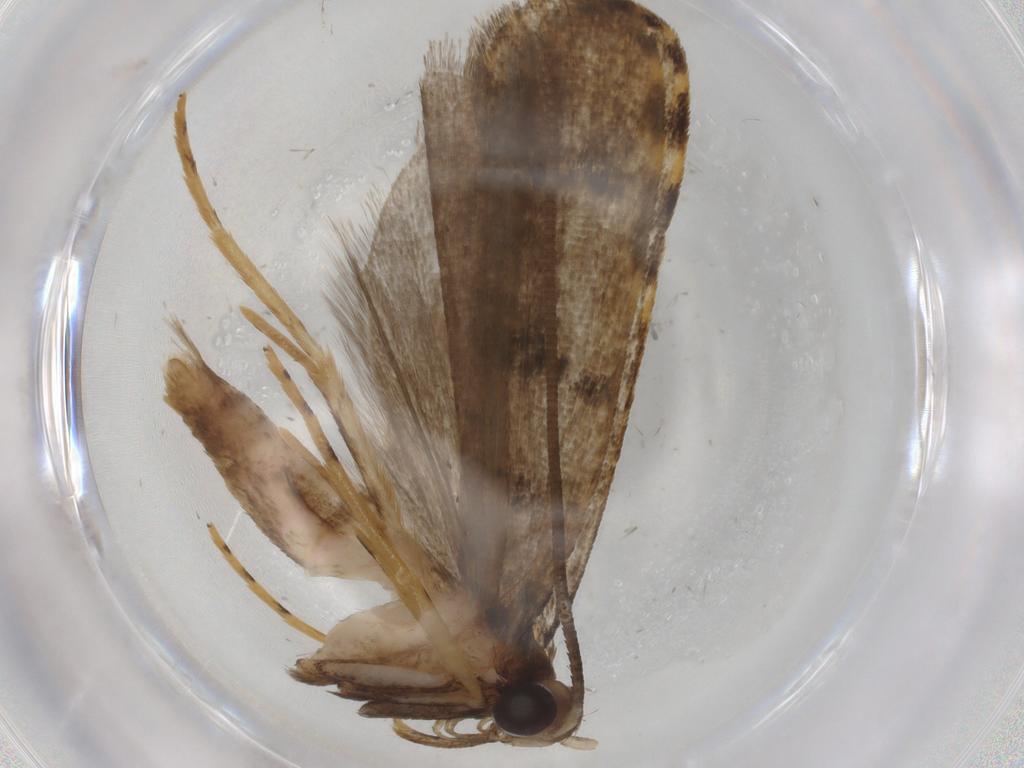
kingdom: Animalia
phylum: Arthropoda
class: Insecta
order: Lepidoptera
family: Cosmopterigidae
